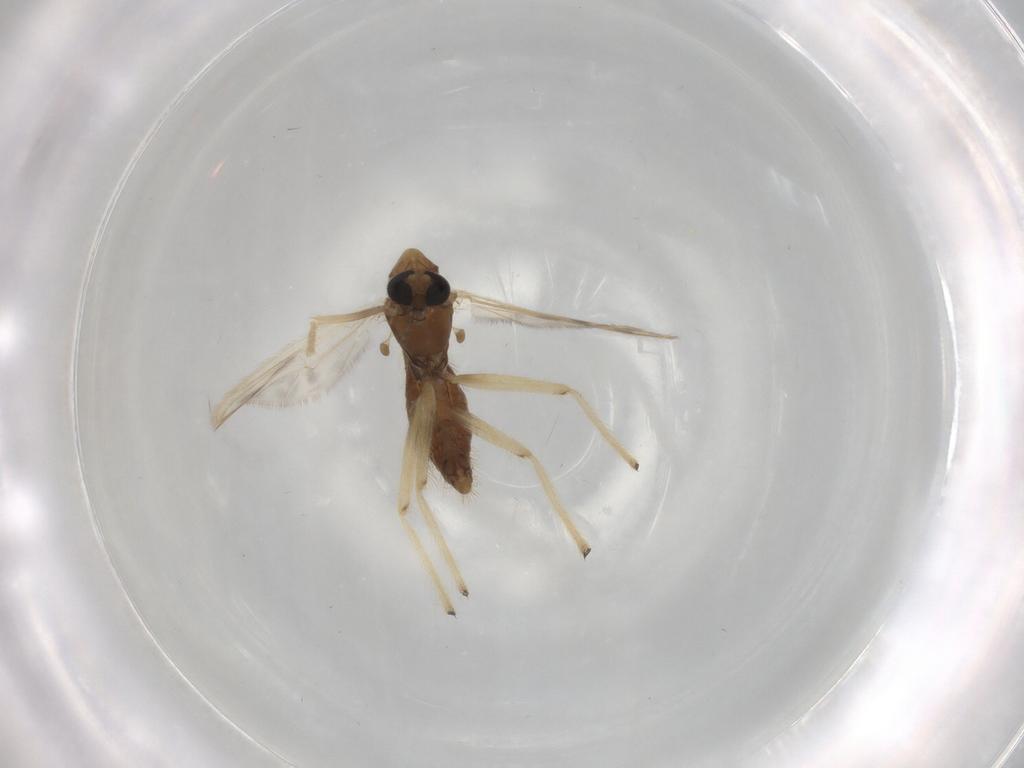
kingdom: Animalia
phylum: Arthropoda
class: Insecta
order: Diptera
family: Chironomidae
